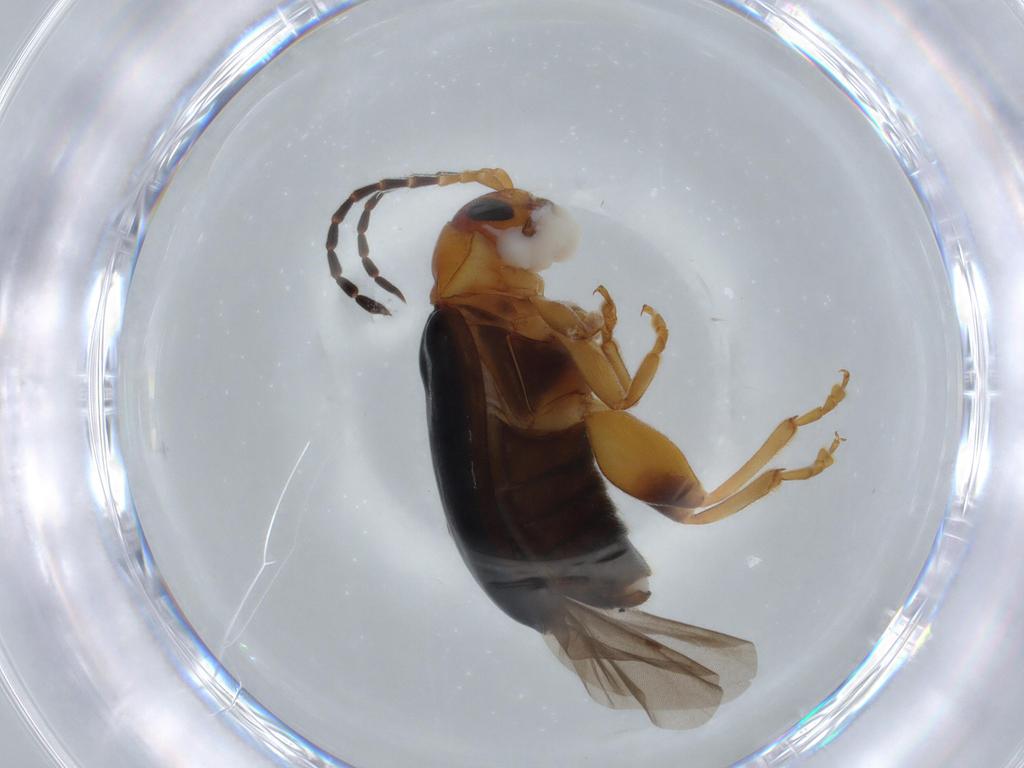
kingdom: Animalia
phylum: Arthropoda
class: Insecta
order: Coleoptera
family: Chrysomelidae
